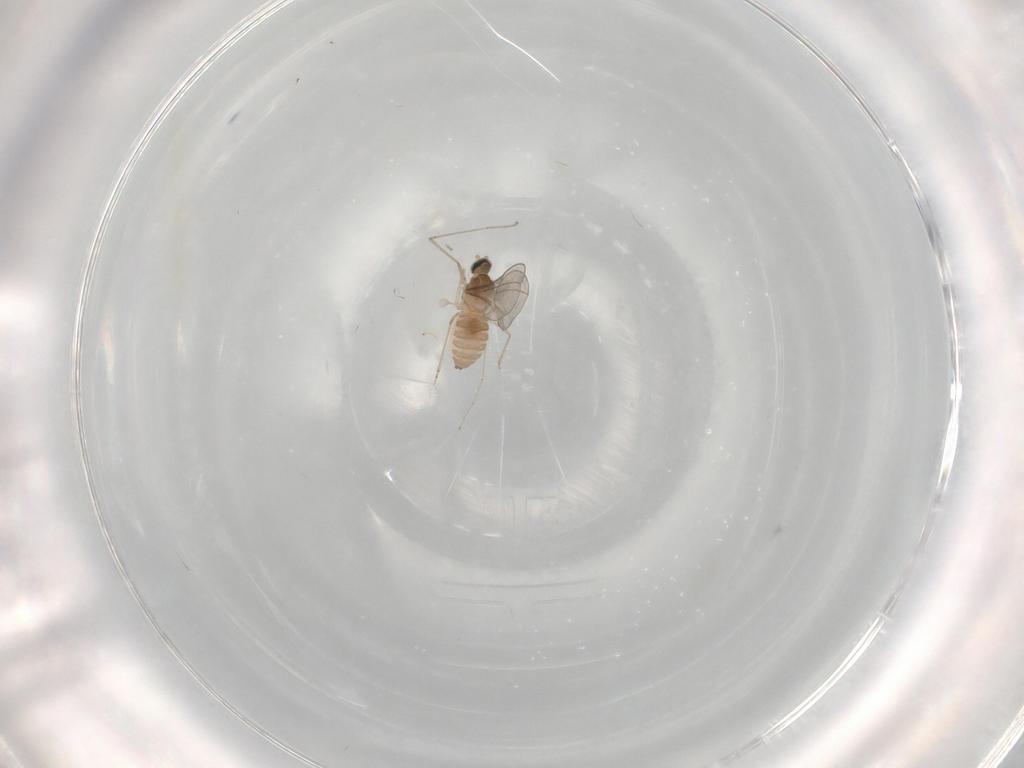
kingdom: Animalia
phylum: Arthropoda
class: Insecta
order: Diptera
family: Cecidomyiidae
